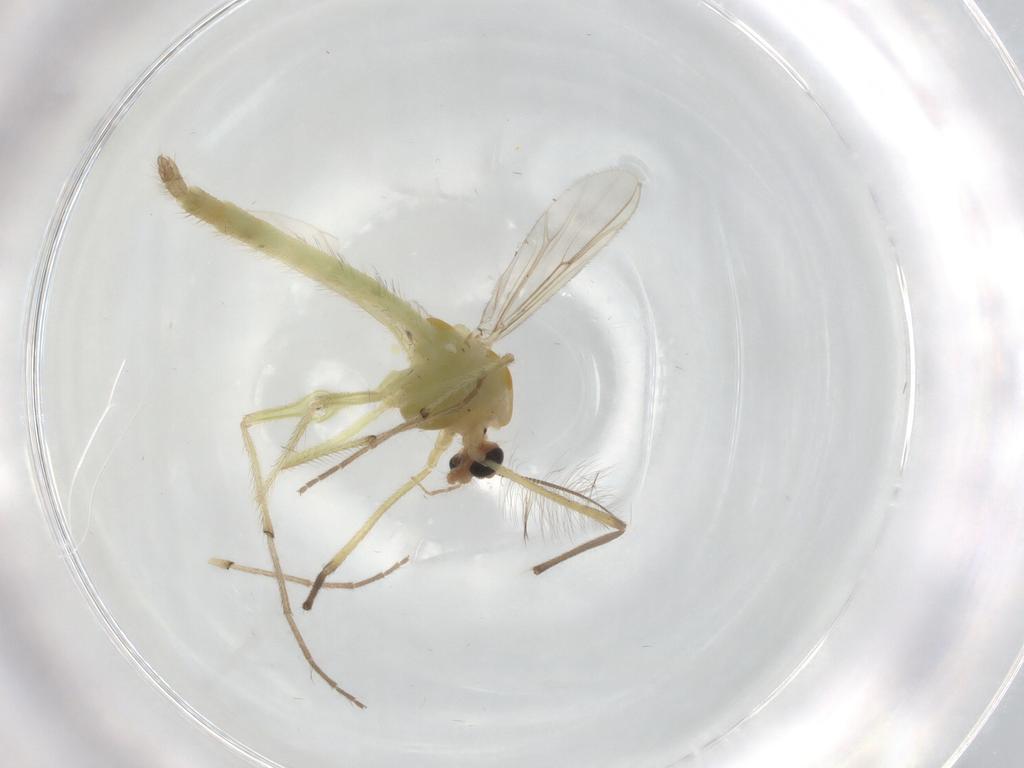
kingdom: Animalia
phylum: Arthropoda
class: Insecta
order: Diptera
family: Chironomidae
